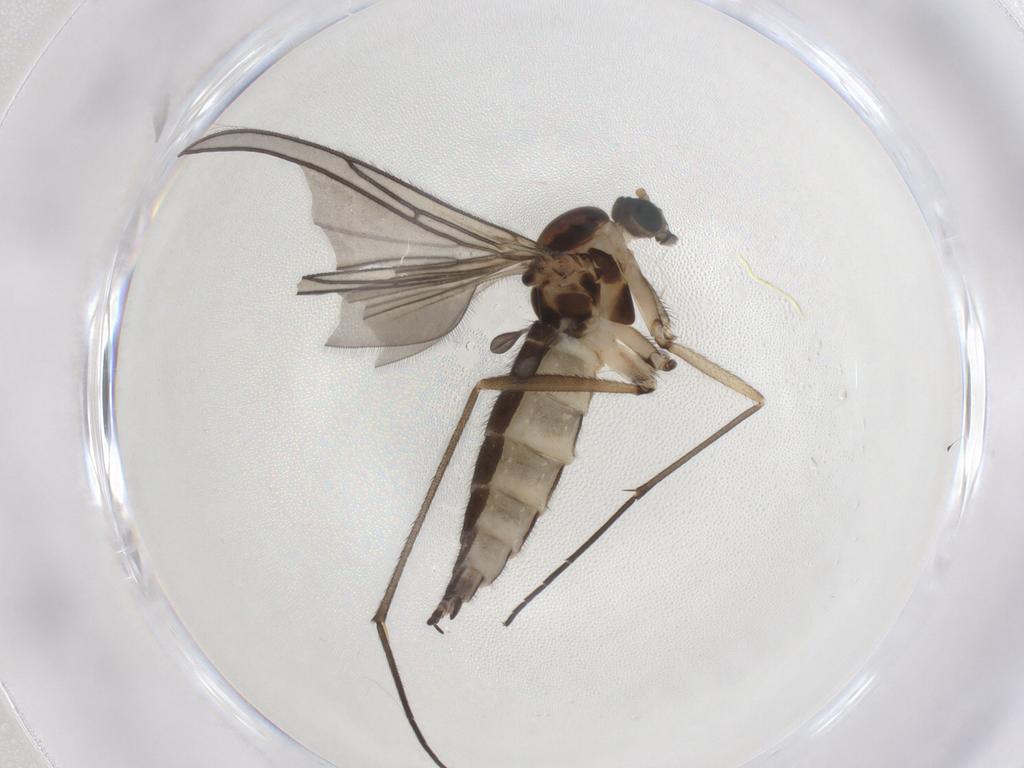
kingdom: Animalia
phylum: Arthropoda
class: Insecta
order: Diptera
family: Sciaridae
